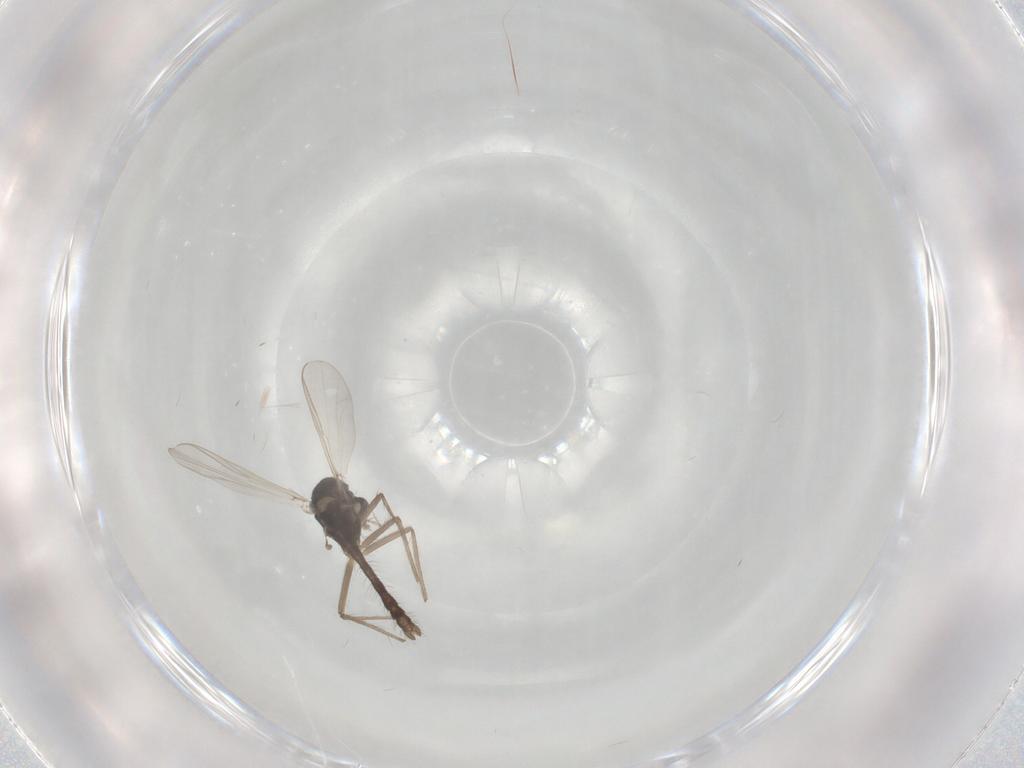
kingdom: Animalia
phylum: Arthropoda
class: Insecta
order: Diptera
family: Chironomidae
